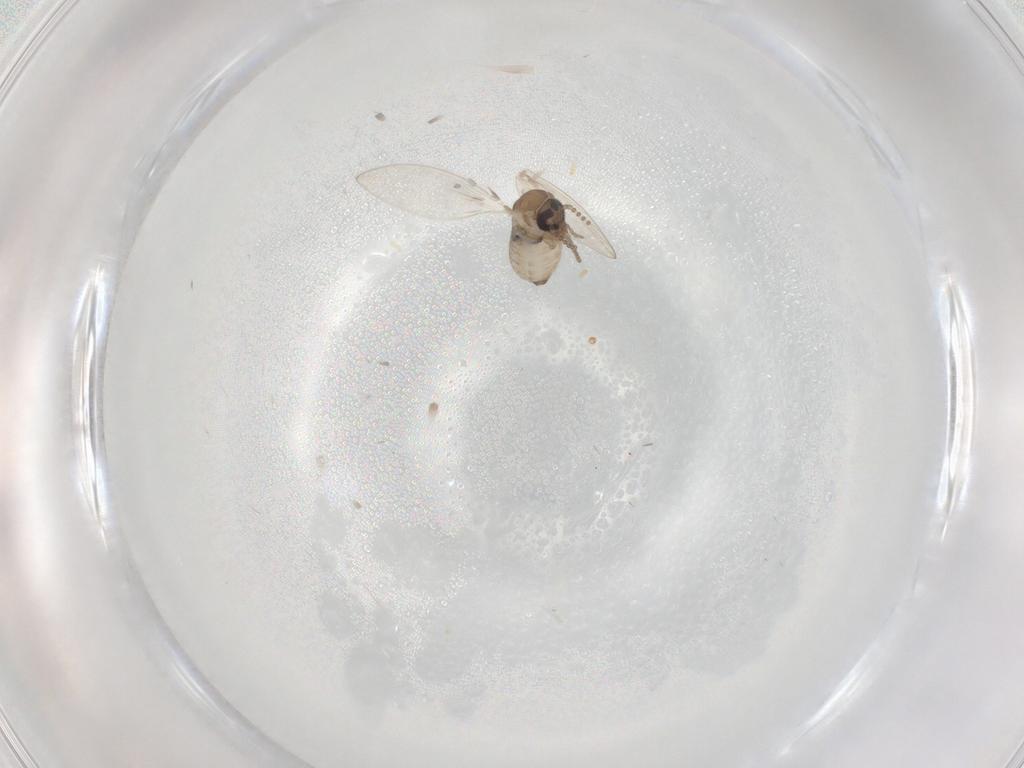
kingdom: Animalia
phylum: Arthropoda
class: Insecta
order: Diptera
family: Psychodidae
